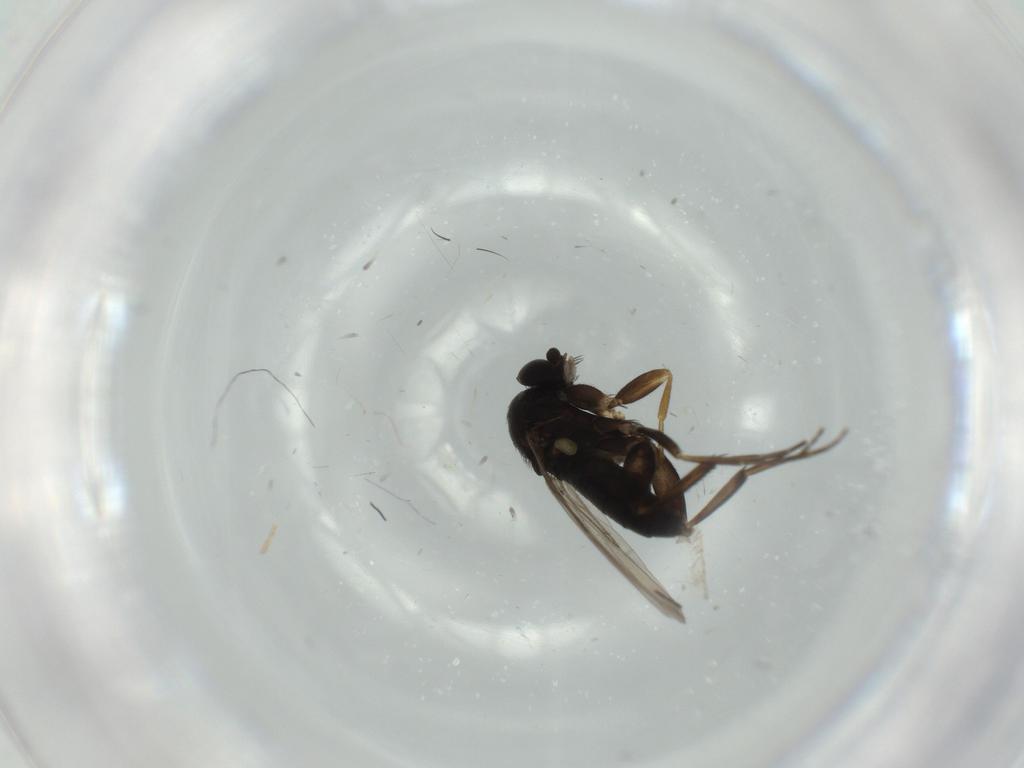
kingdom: Animalia
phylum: Arthropoda
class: Insecta
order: Diptera
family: Phoridae
